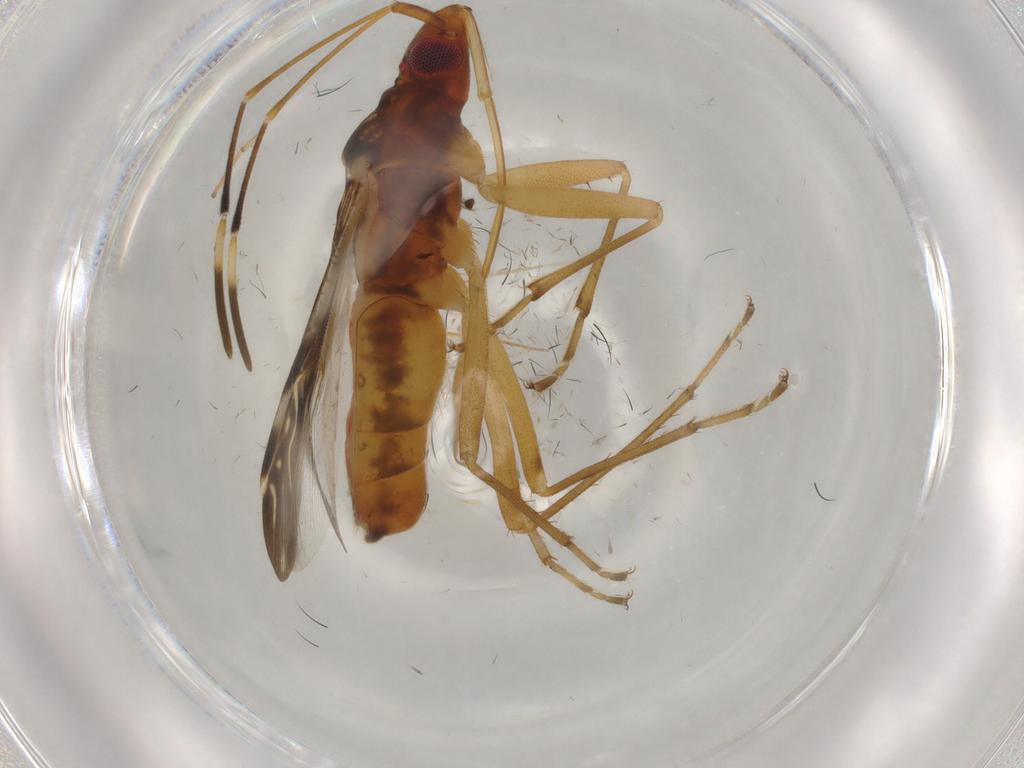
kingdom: Animalia
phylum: Arthropoda
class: Insecta
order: Hemiptera
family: Rhyparochromidae
